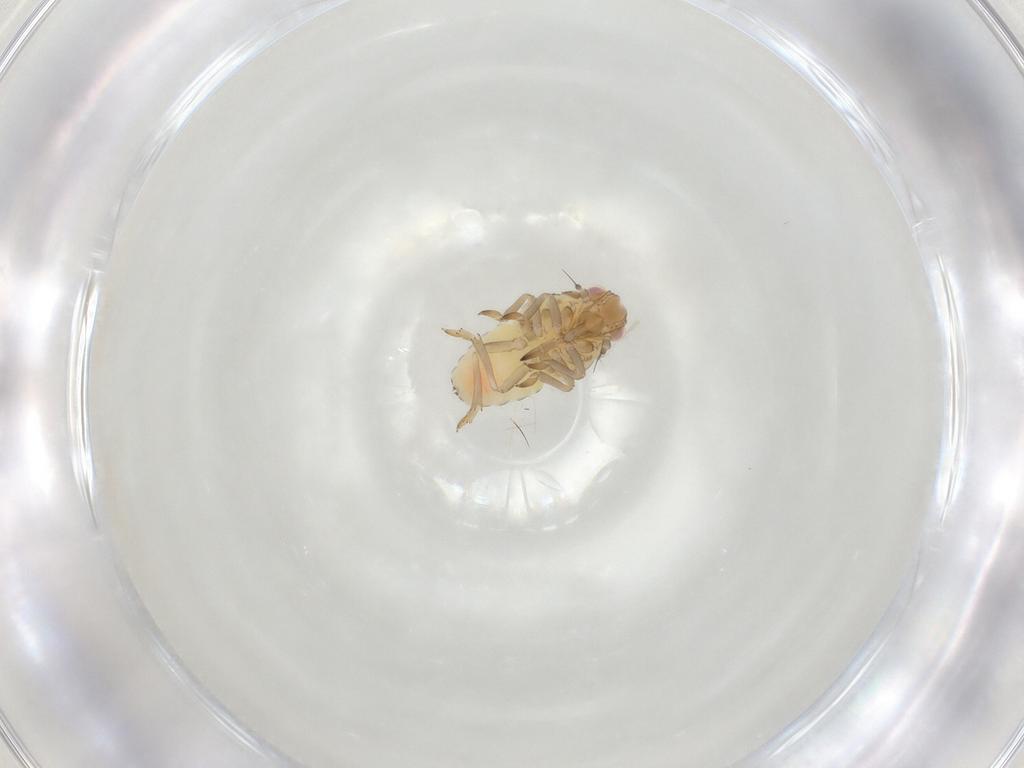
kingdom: Animalia
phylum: Arthropoda
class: Insecta
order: Hemiptera
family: Tropiduchidae
